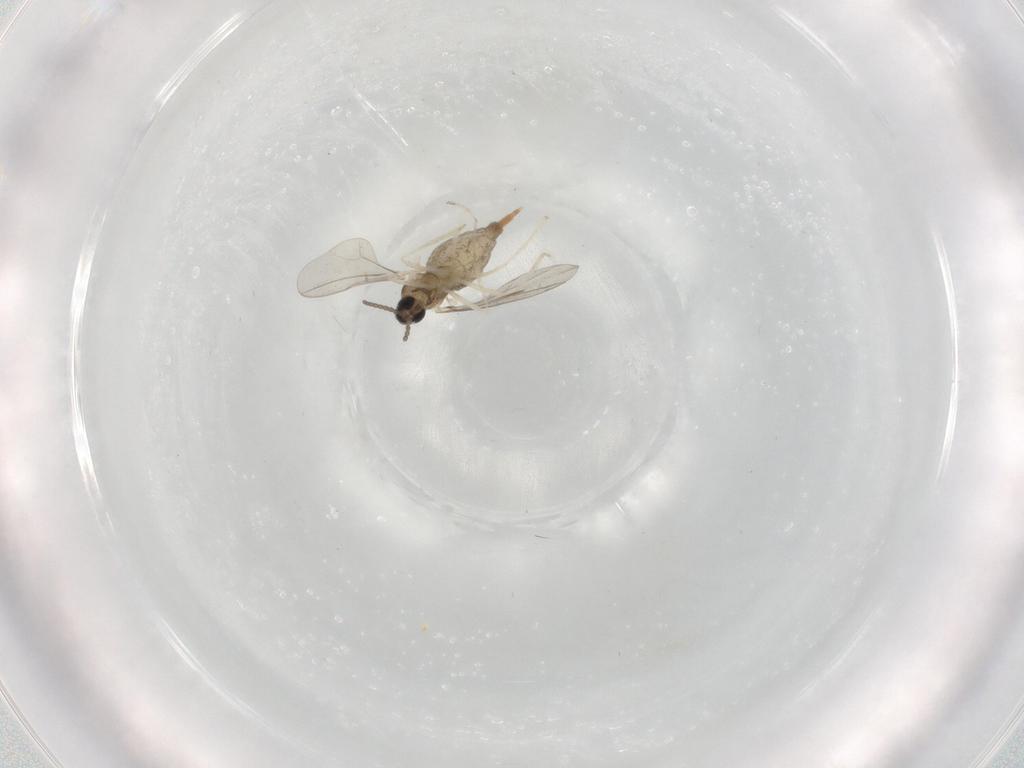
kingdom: Animalia
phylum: Arthropoda
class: Insecta
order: Diptera
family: Cecidomyiidae
